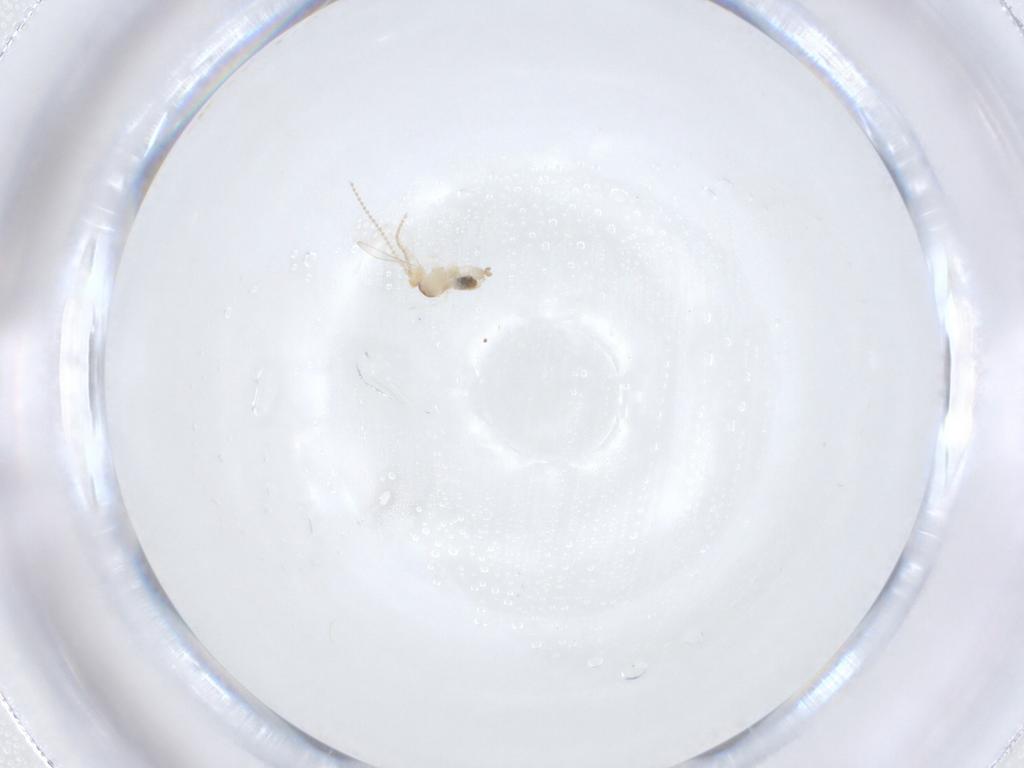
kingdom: Animalia
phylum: Arthropoda
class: Insecta
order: Diptera
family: Cecidomyiidae
